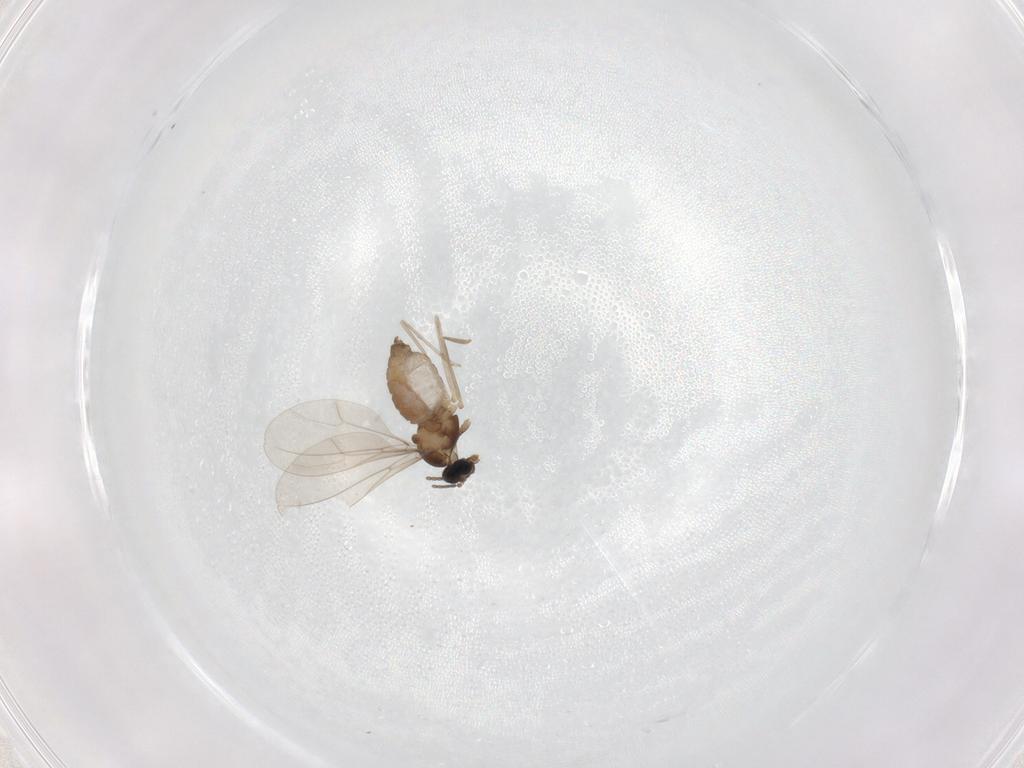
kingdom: Animalia
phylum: Arthropoda
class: Insecta
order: Diptera
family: Cecidomyiidae
